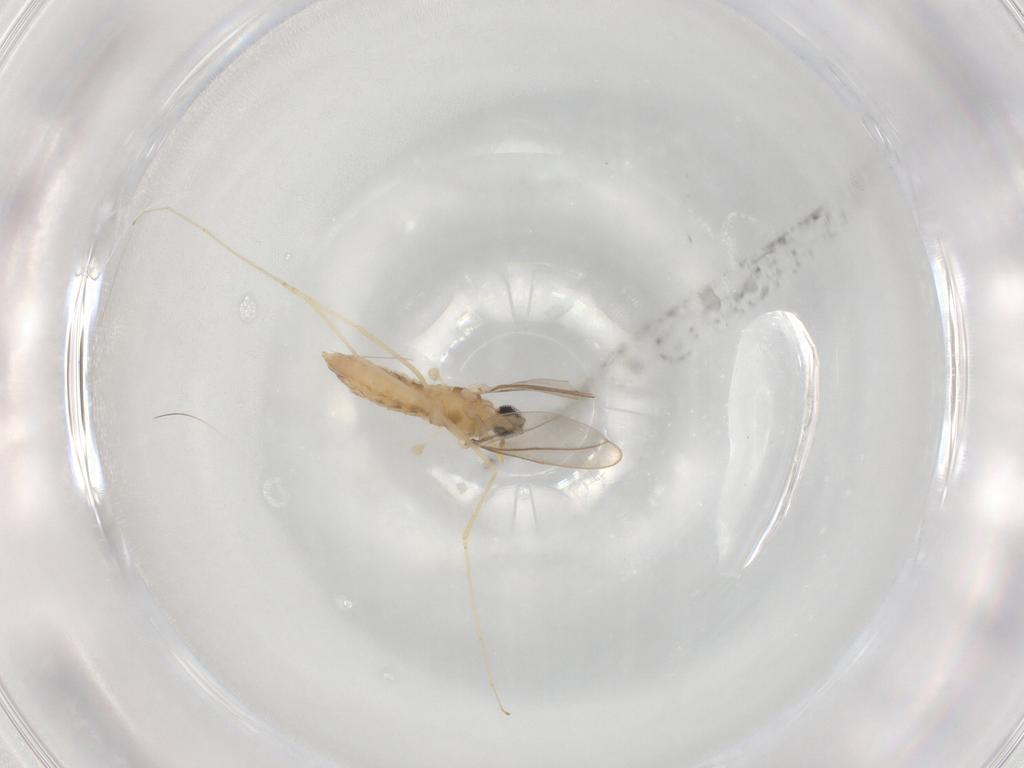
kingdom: Animalia
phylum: Arthropoda
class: Insecta
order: Diptera
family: Cecidomyiidae
